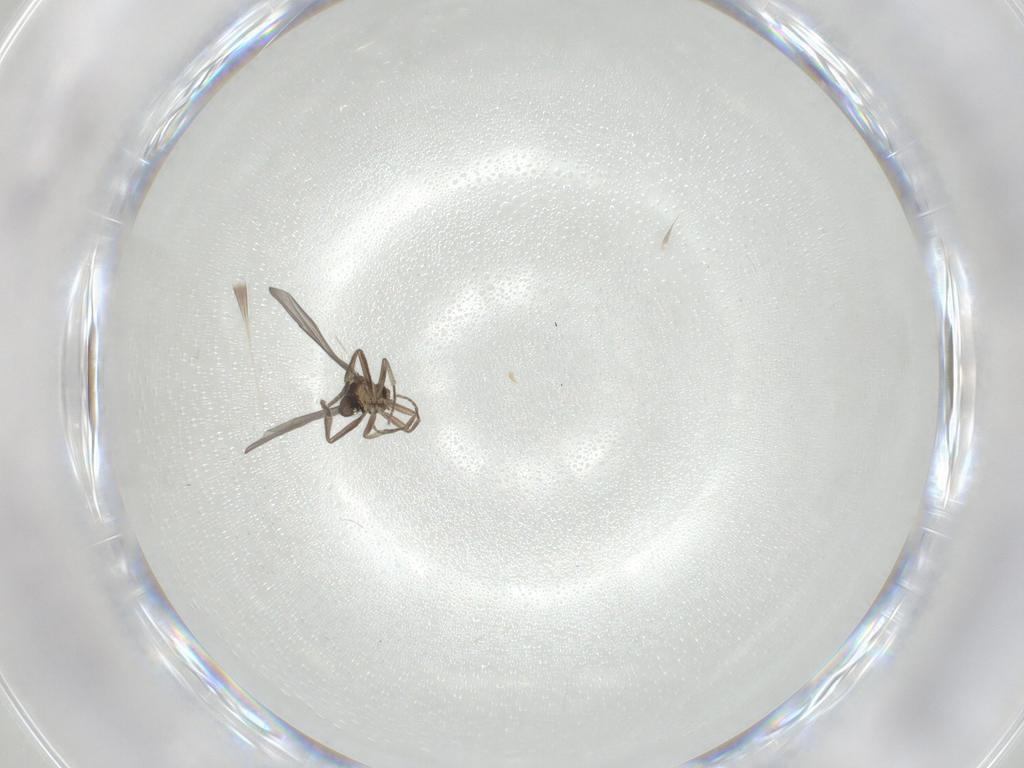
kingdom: Animalia
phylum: Arthropoda
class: Insecta
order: Diptera
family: Phoridae
